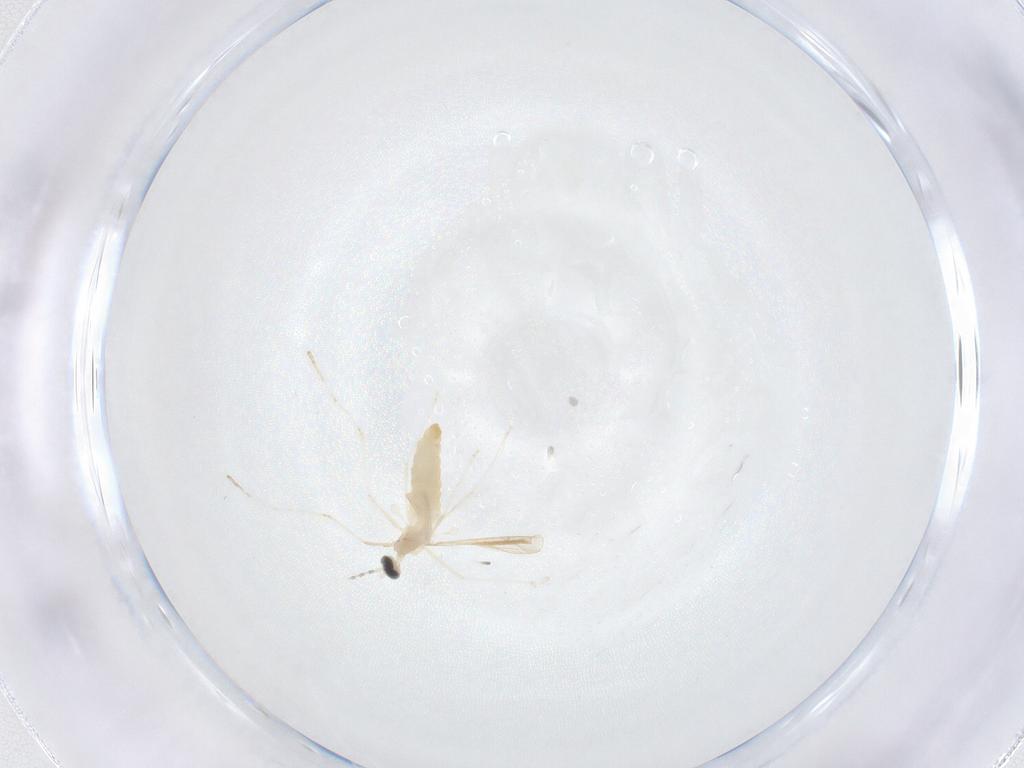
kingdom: Animalia
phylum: Arthropoda
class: Insecta
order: Diptera
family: Cecidomyiidae
